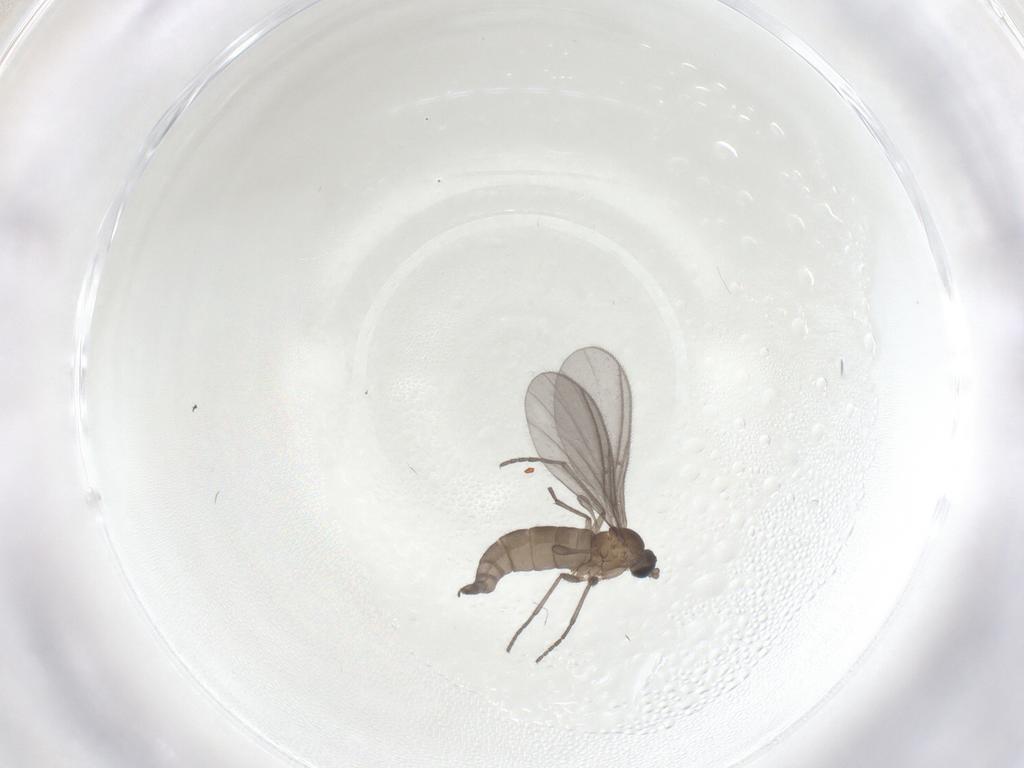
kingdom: Animalia
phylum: Arthropoda
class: Insecta
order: Diptera
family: Sciaridae
